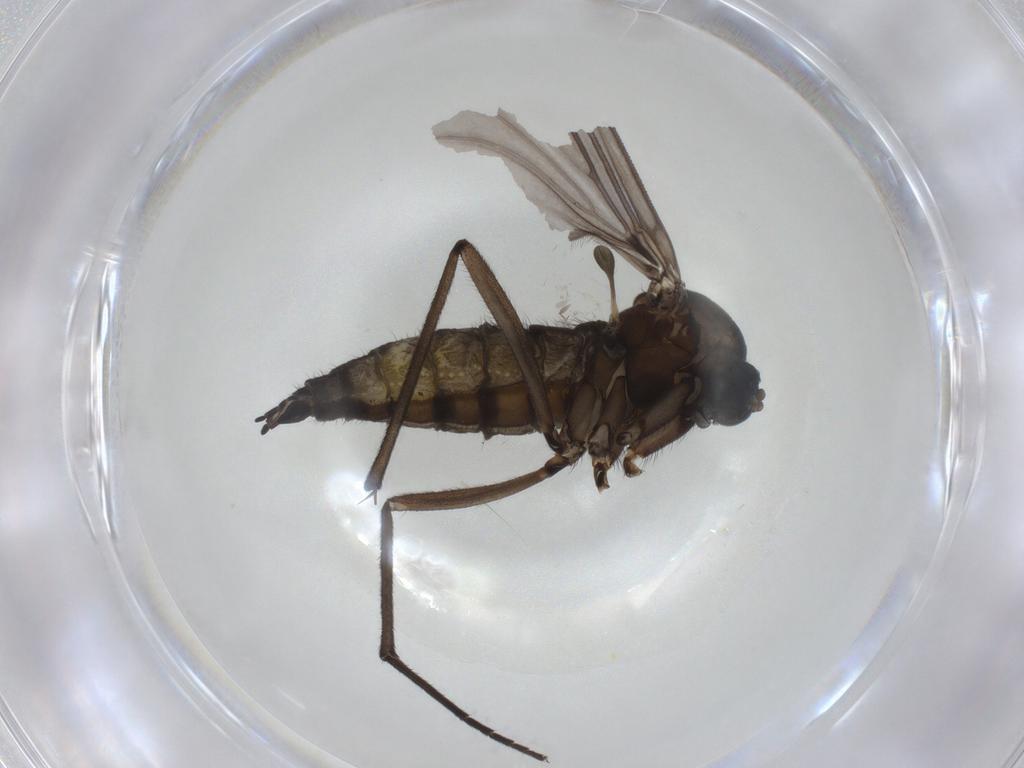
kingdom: Animalia
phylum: Arthropoda
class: Insecta
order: Diptera
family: Sciaridae
